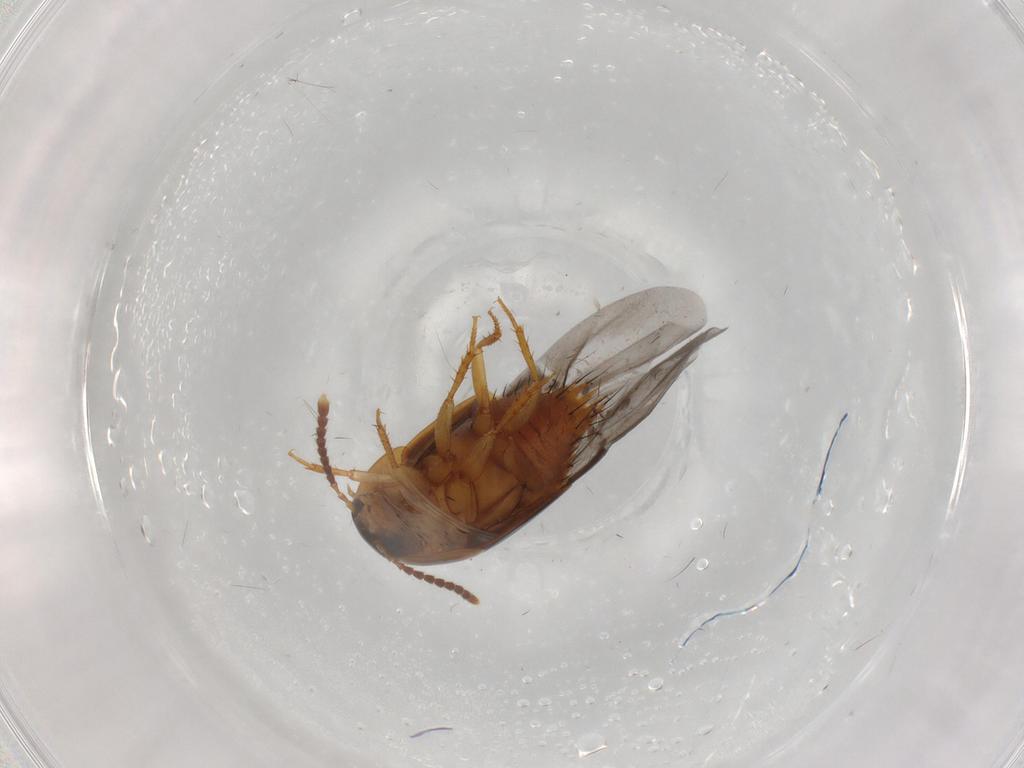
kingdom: Animalia
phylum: Arthropoda
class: Insecta
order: Coleoptera
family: Staphylinidae
